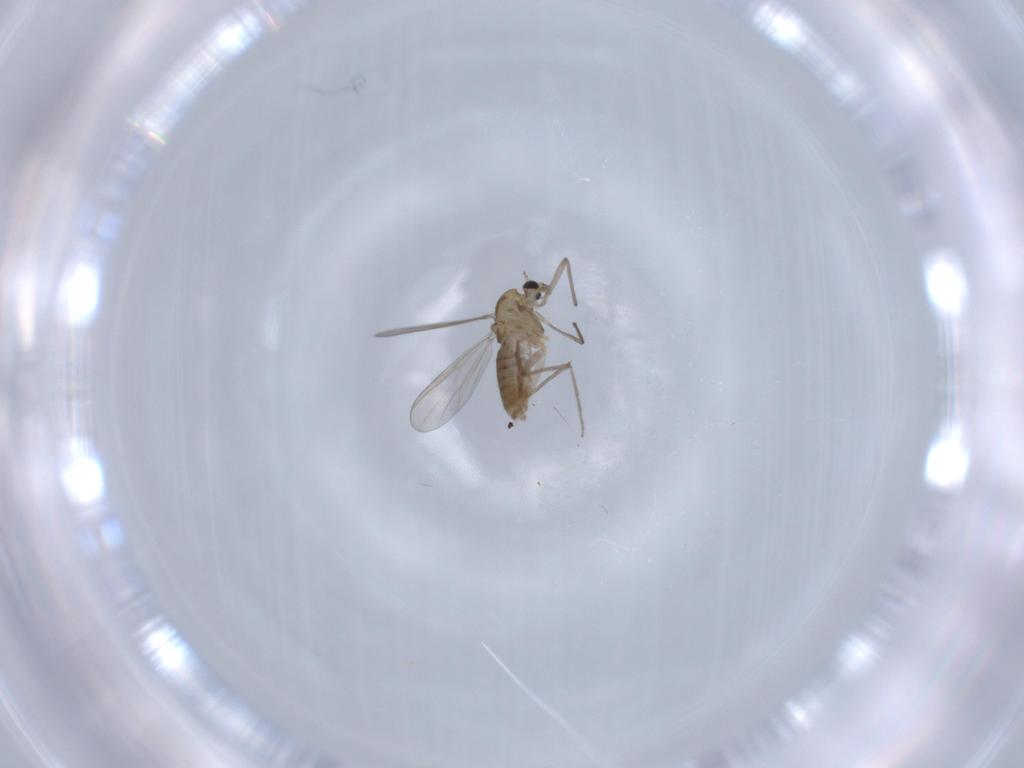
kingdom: Animalia
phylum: Arthropoda
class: Insecta
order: Diptera
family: Chironomidae
